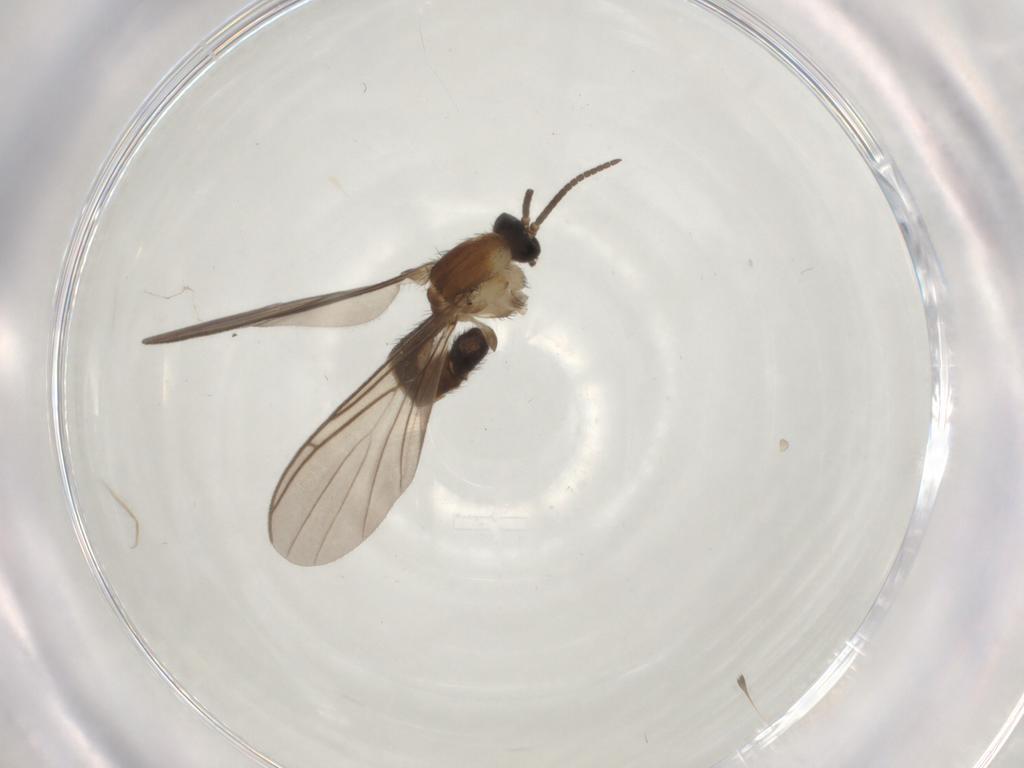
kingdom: Animalia
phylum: Arthropoda
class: Insecta
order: Diptera
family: Keroplatidae
